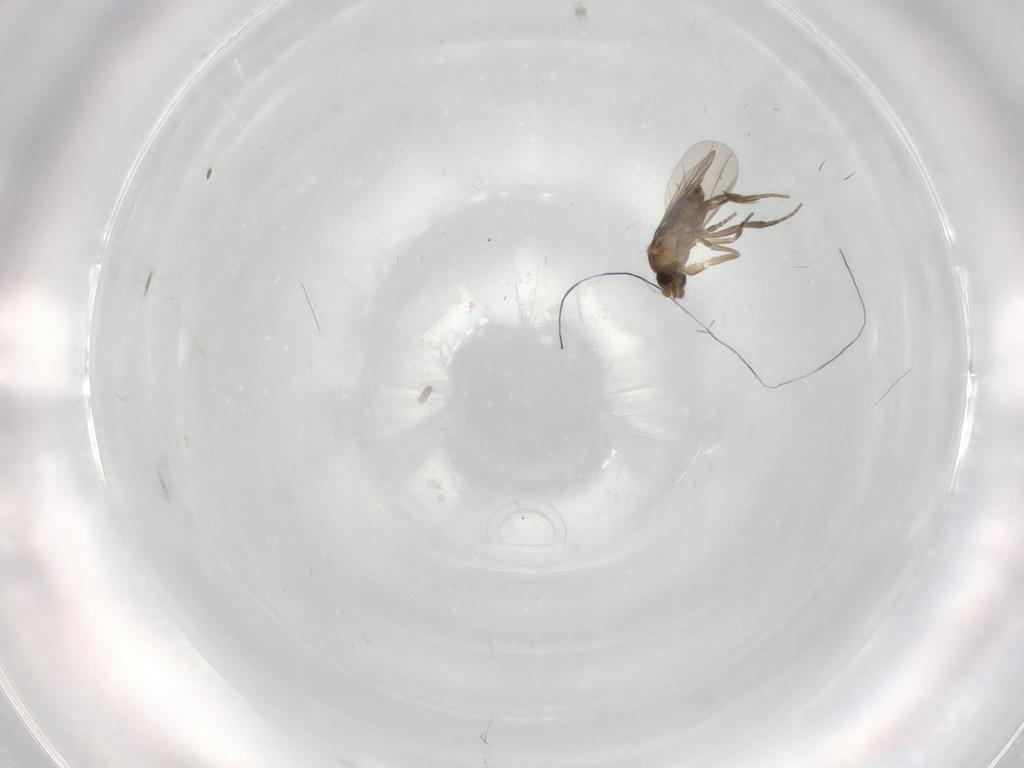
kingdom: Animalia
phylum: Arthropoda
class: Insecta
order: Diptera
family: Phoridae
